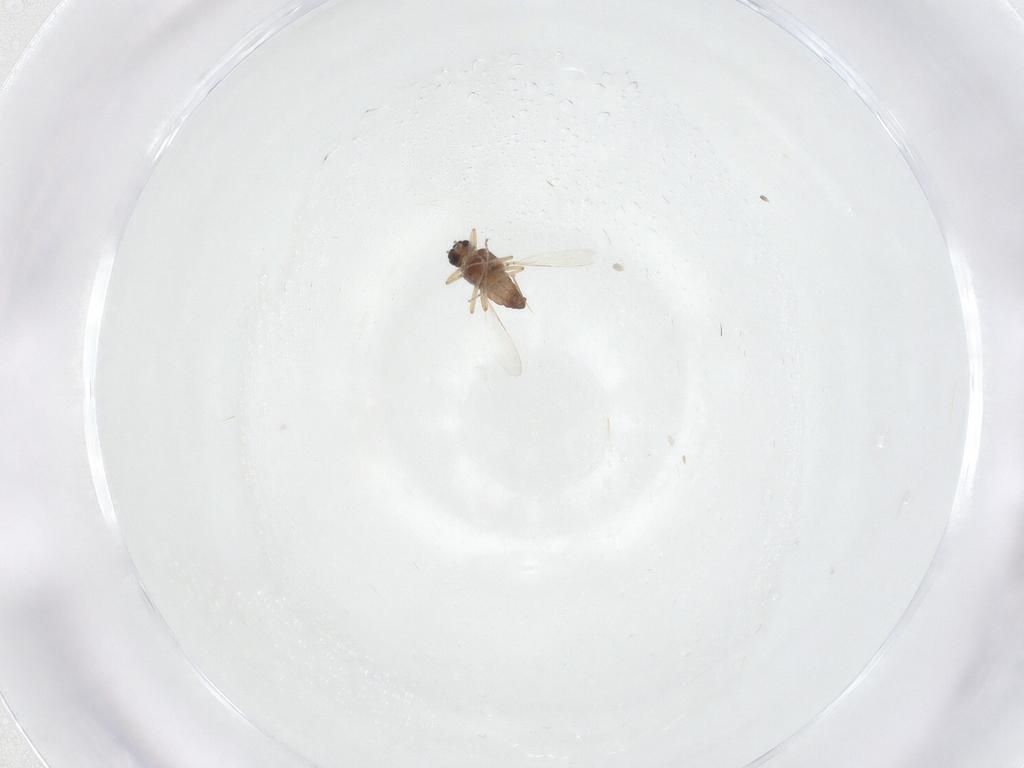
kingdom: Animalia
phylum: Arthropoda
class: Insecta
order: Diptera
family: Ceratopogonidae
